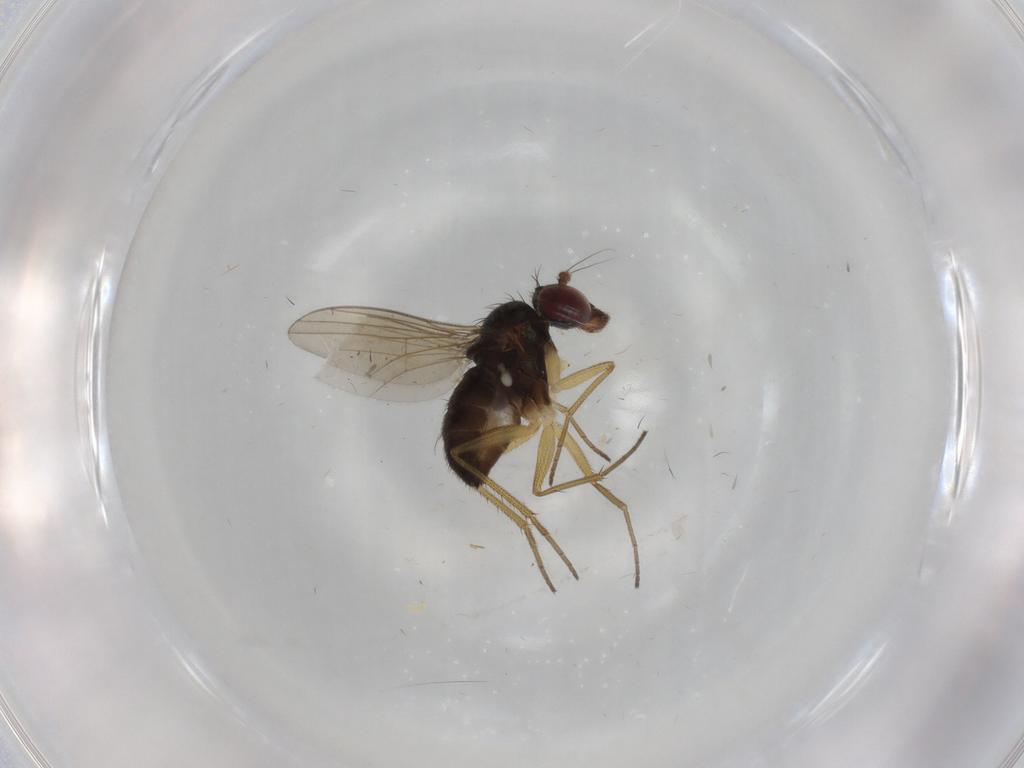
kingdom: Animalia
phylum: Arthropoda
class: Insecta
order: Diptera
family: Dolichopodidae
